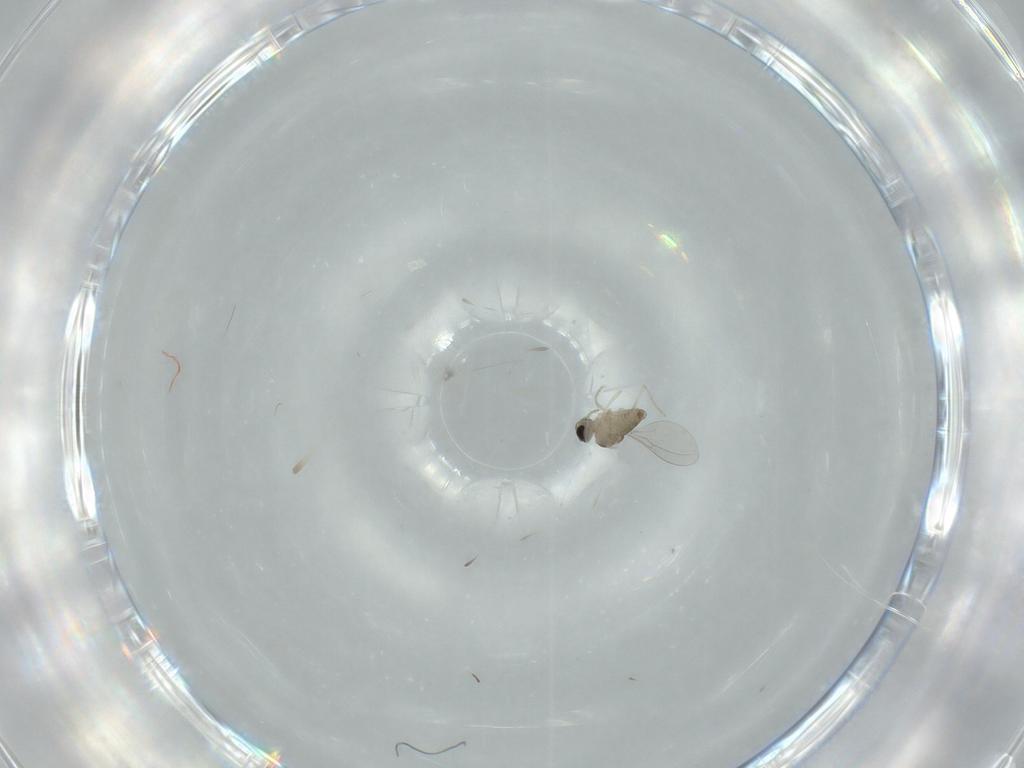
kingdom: Animalia
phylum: Arthropoda
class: Insecta
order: Diptera
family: Cecidomyiidae
